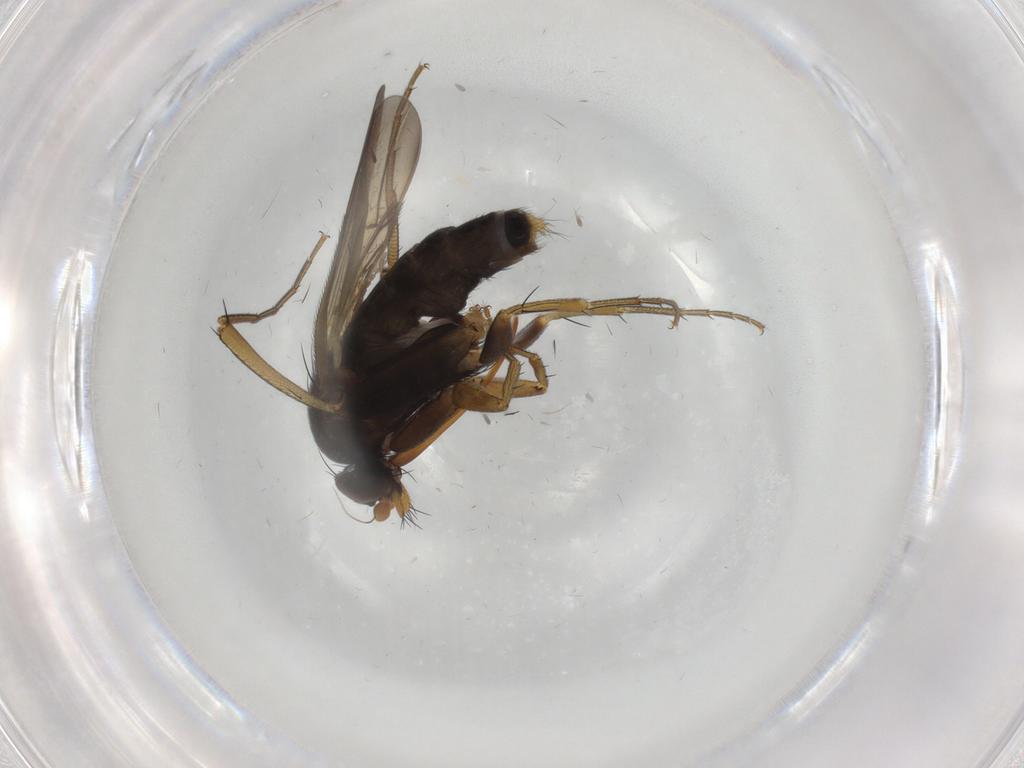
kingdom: Animalia
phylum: Arthropoda
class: Insecta
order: Diptera
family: Phoridae
